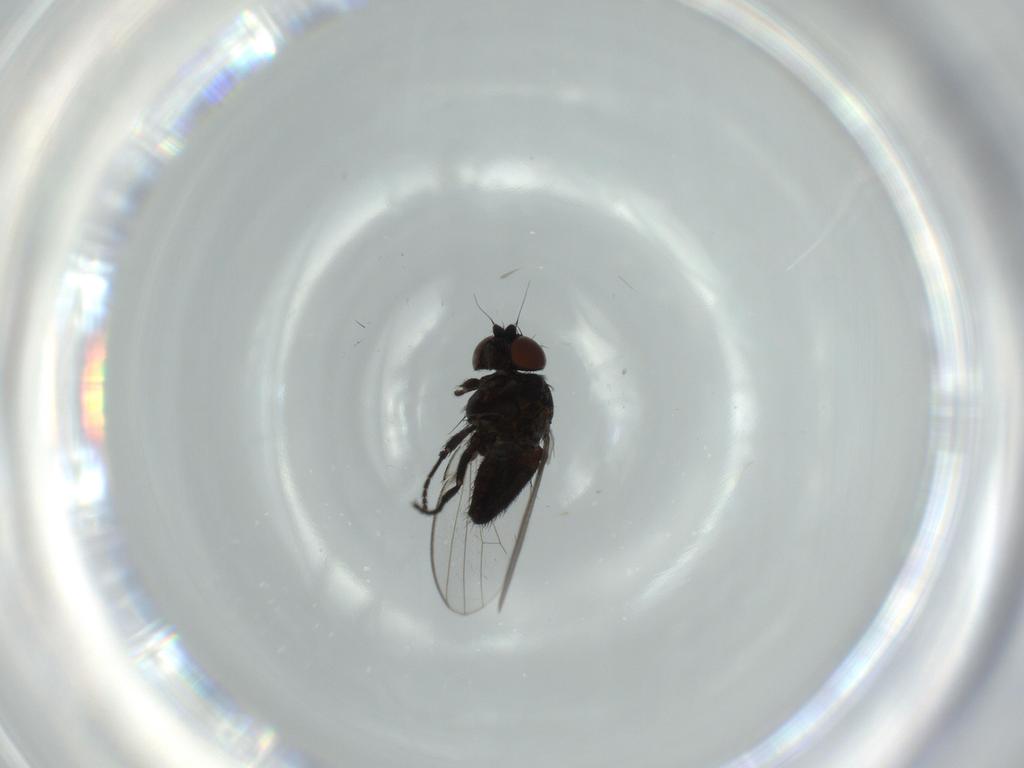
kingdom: Animalia
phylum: Arthropoda
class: Insecta
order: Diptera
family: Milichiidae
